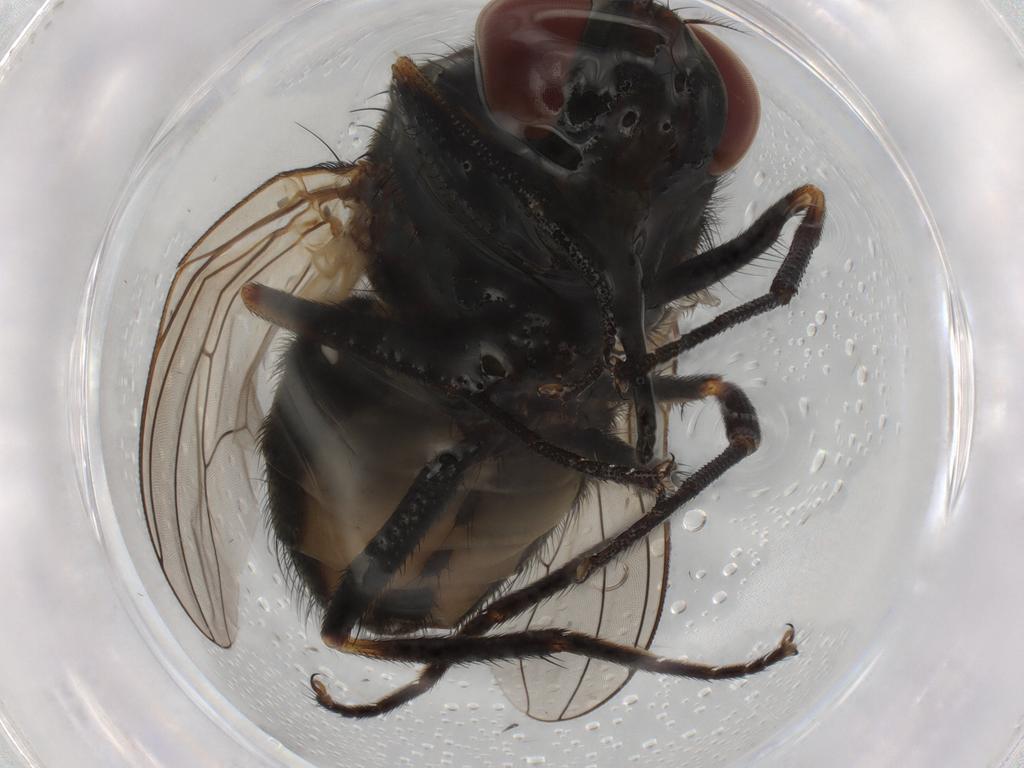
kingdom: Animalia
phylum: Arthropoda
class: Insecta
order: Diptera
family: Muscidae
